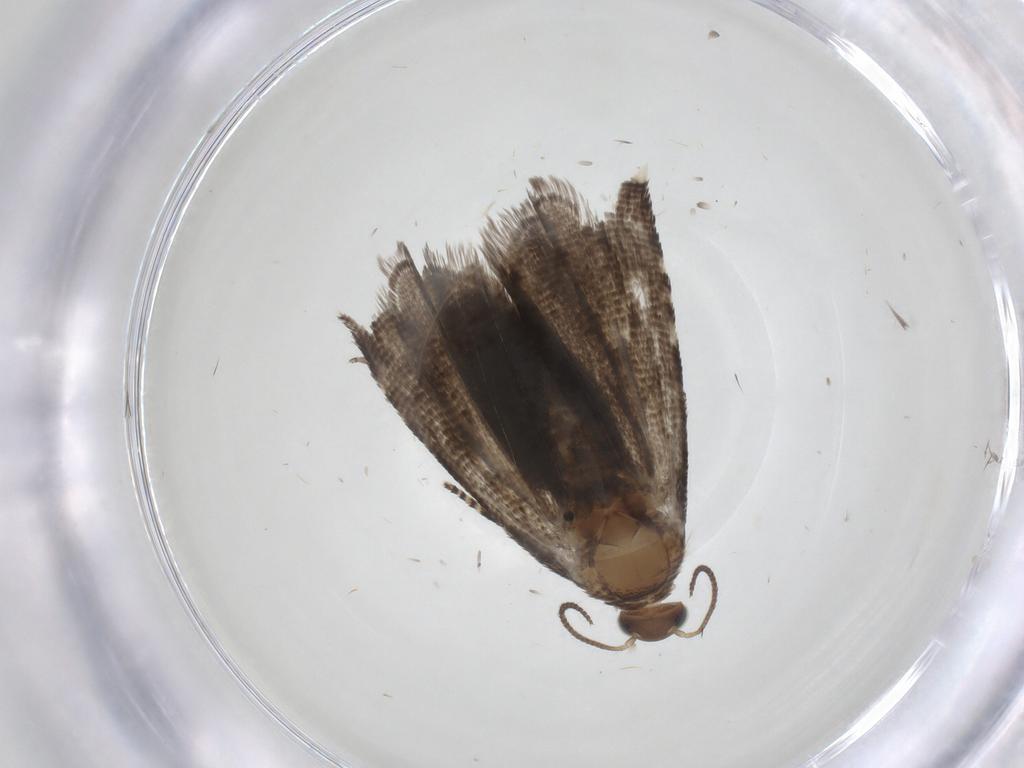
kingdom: Animalia
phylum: Arthropoda
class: Insecta
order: Lepidoptera
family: Tortricidae
